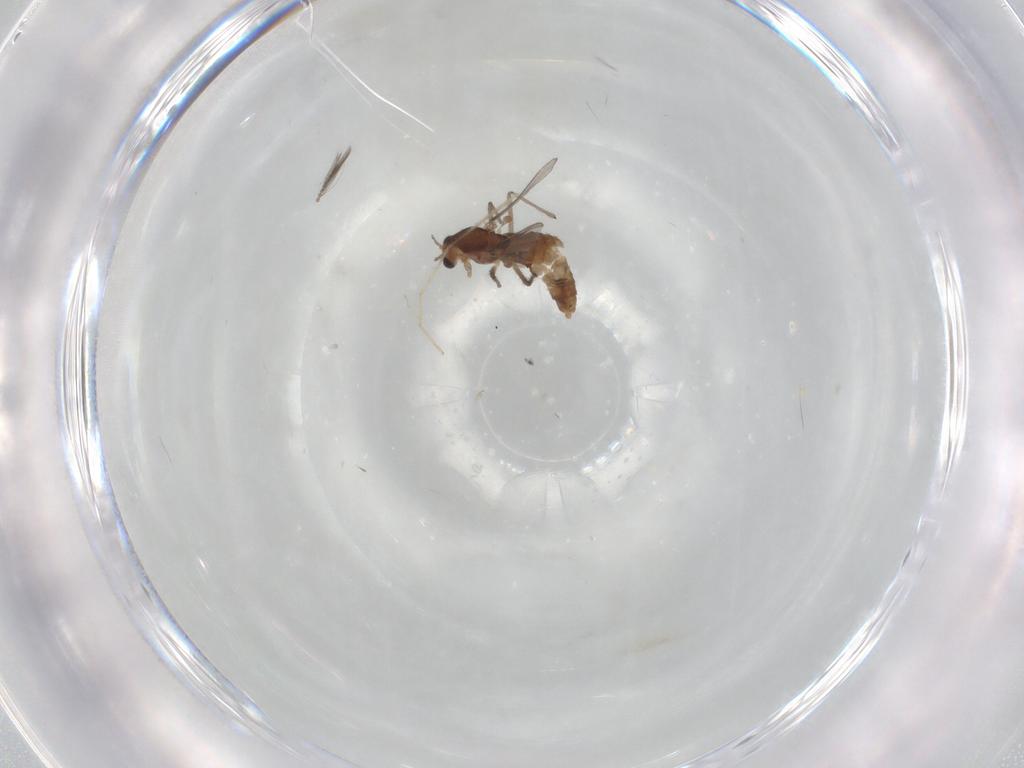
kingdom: Animalia
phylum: Arthropoda
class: Insecta
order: Diptera
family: Chironomidae
